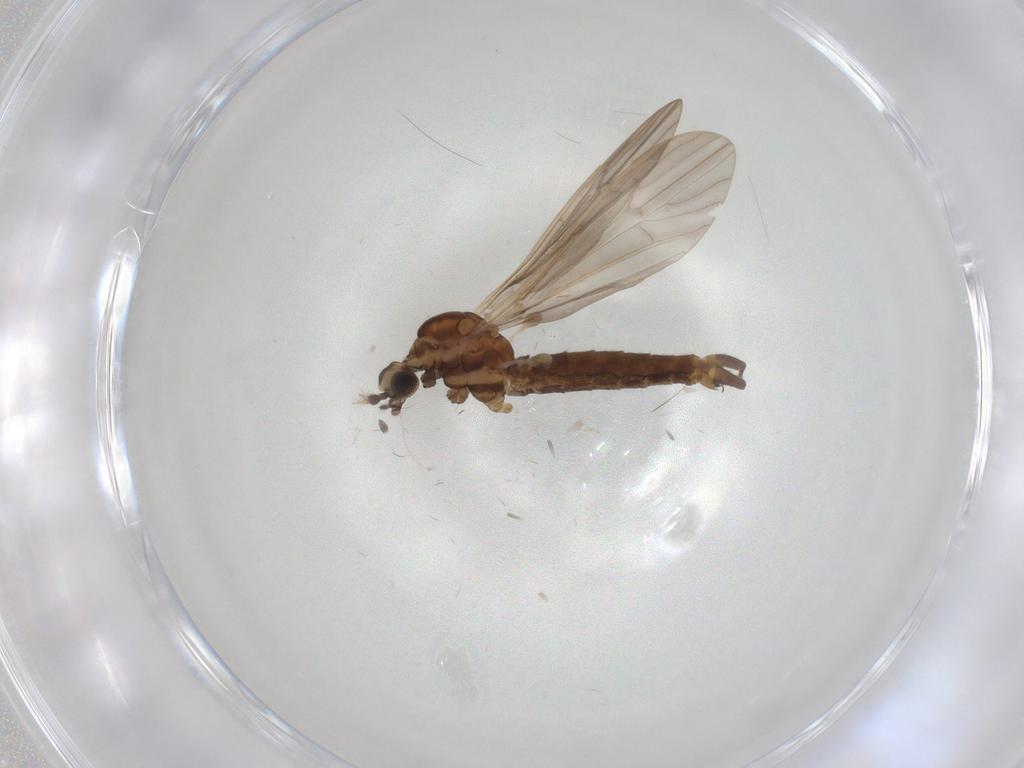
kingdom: Animalia
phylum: Arthropoda
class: Insecta
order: Diptera
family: Limoniidae
